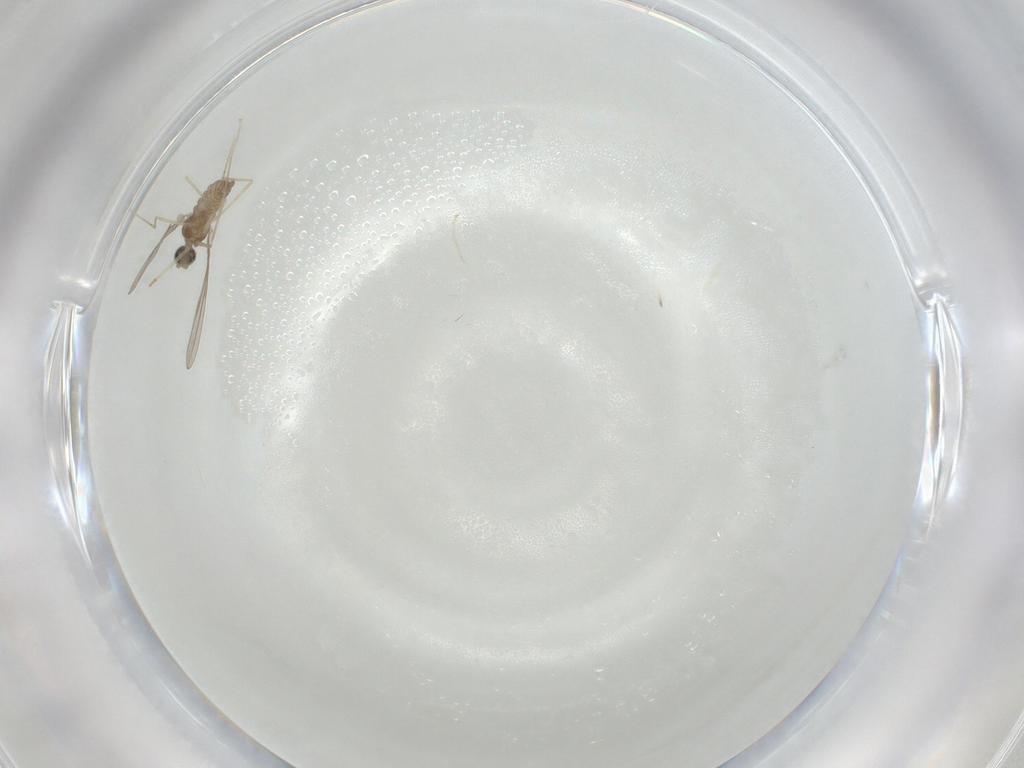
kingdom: Animalia
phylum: Arthropoda
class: Insecta
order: Diptera
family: Cecidomyiidae
